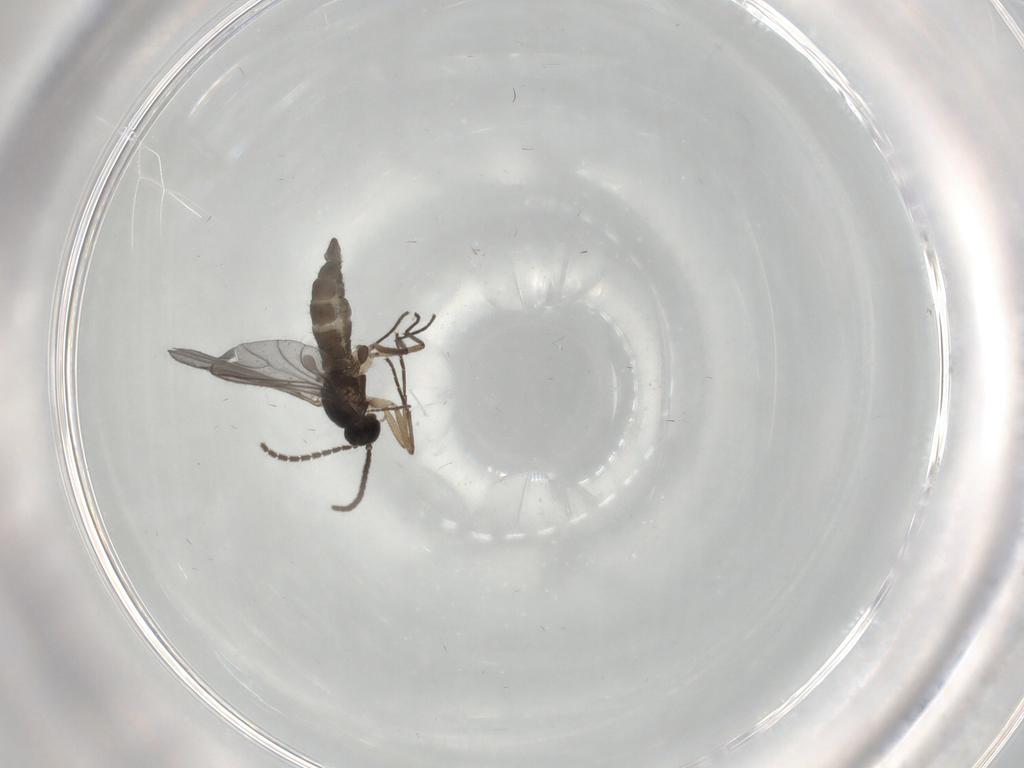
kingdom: Animalia
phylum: Arthropoda
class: Insecta
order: Diptera
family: Sciaridae
